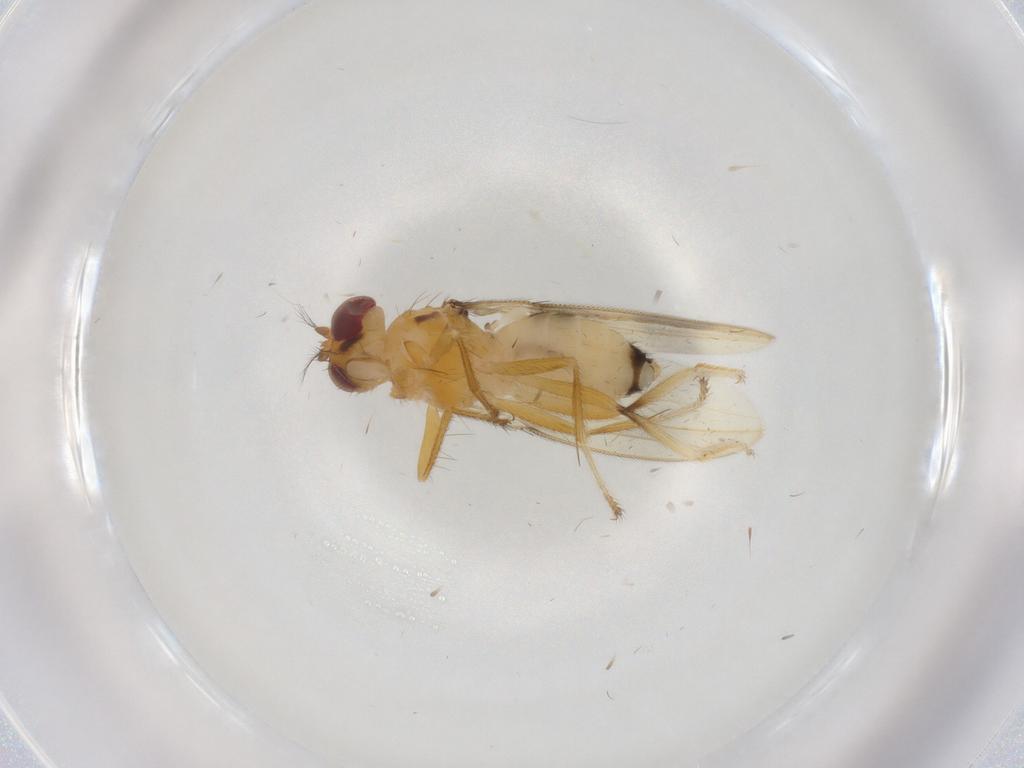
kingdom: Animalia
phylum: Arthropoda
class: Insecta
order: Diptera
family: Periscelididae
